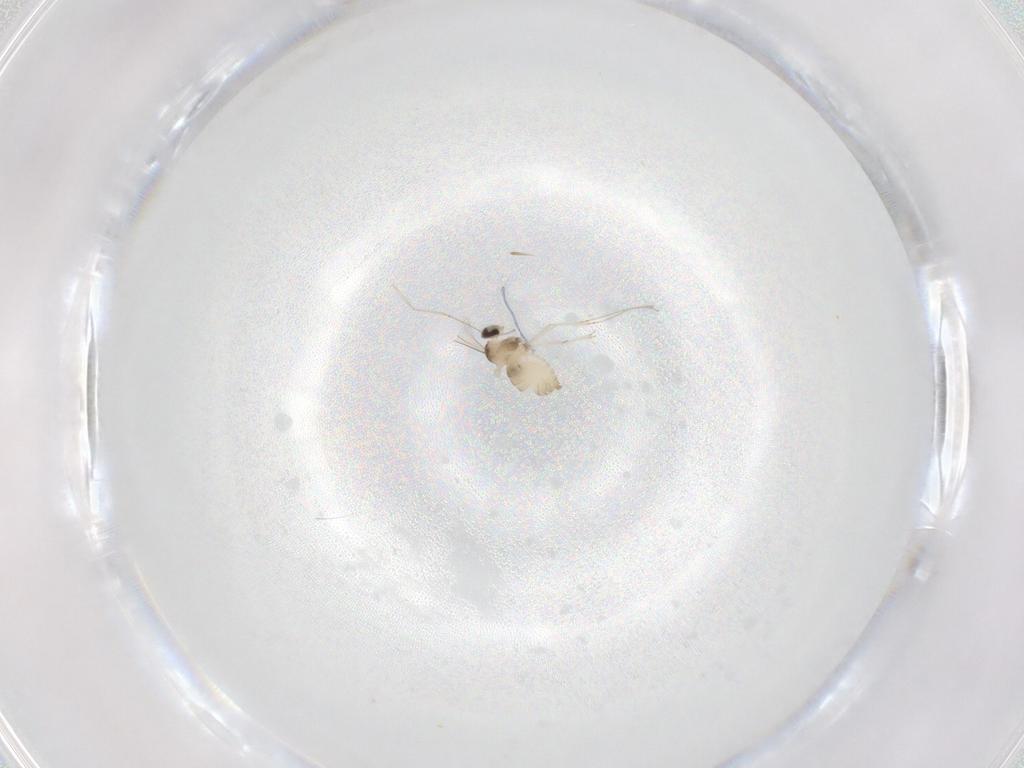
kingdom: Animalia
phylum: Arthropoda
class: Insecta
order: Diptera
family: Cecidomyiidae
